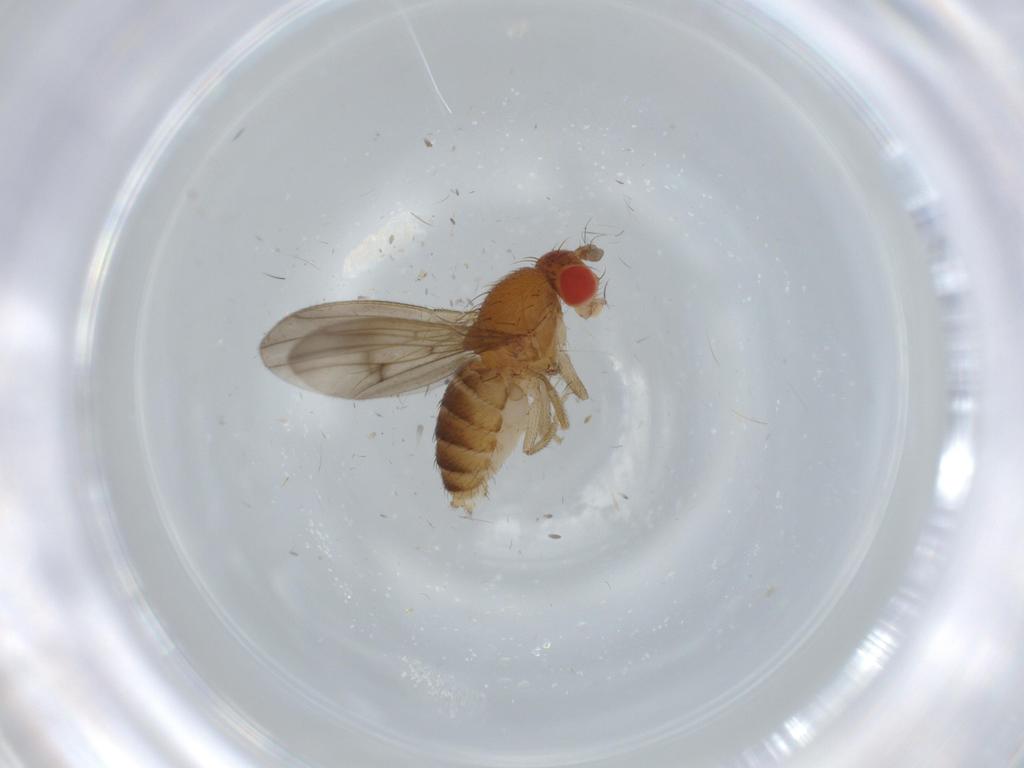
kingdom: Animalia
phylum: Arthropoda
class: Insecta
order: Diptera
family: Drosophilidae
